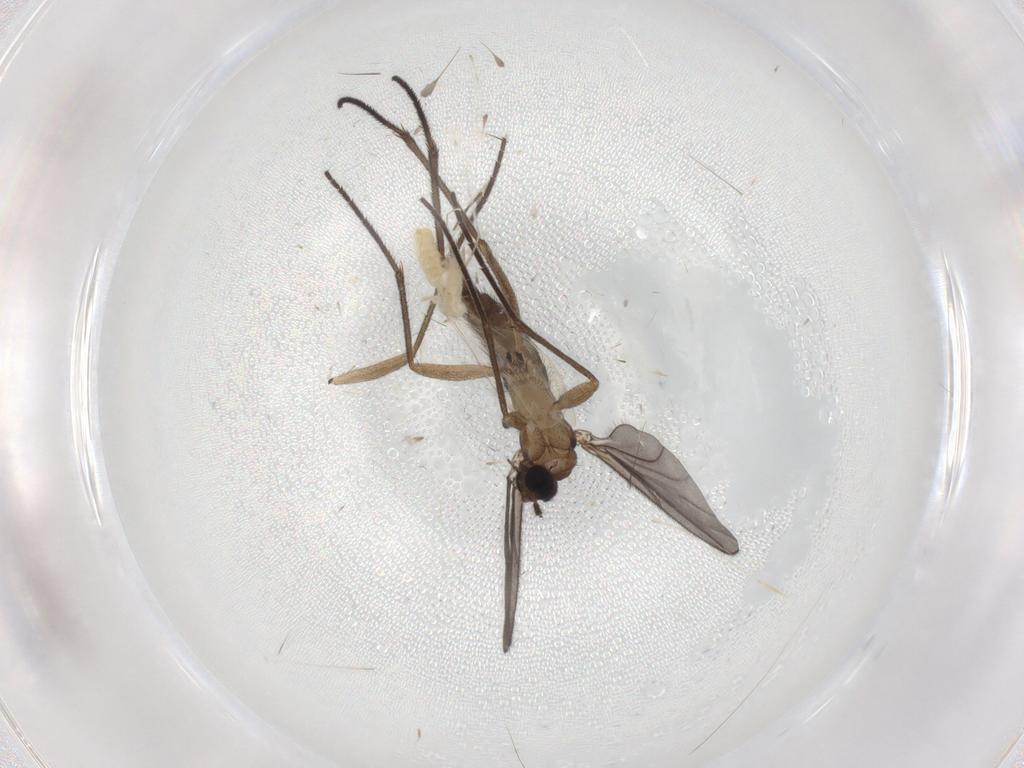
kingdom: Animalia
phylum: Arthropoda
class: Insecta
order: Diptera
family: Cecidomyiidae
